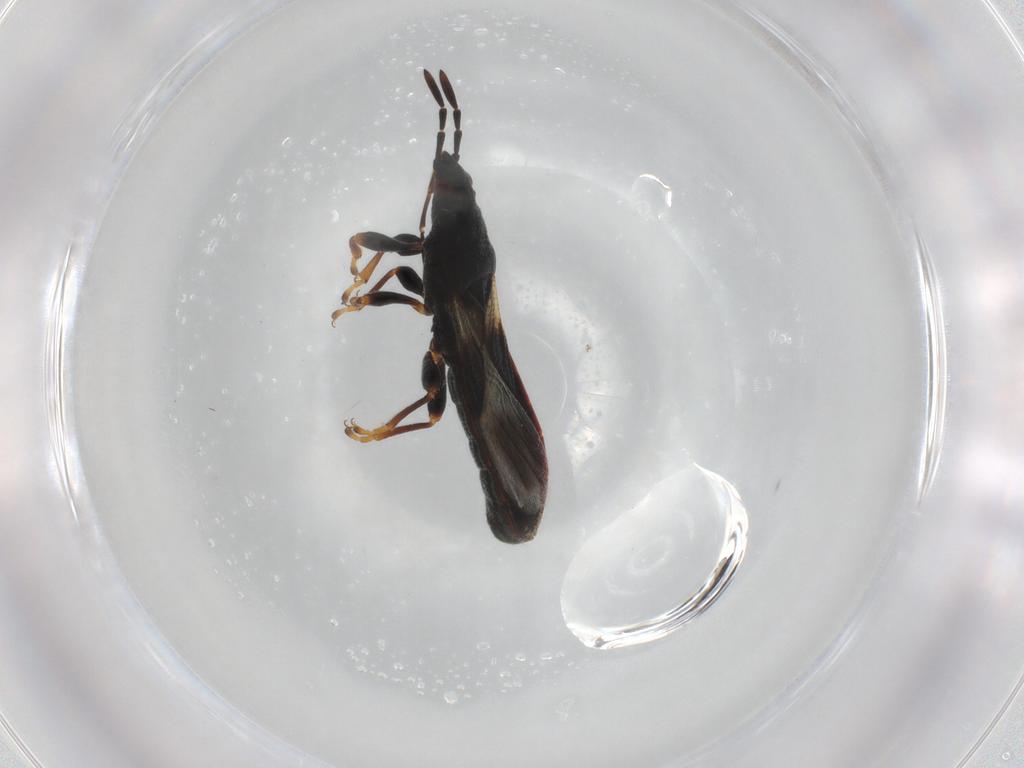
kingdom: Animalia
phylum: Arthropoda
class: Insecta
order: Hemiptera
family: Blissidae
